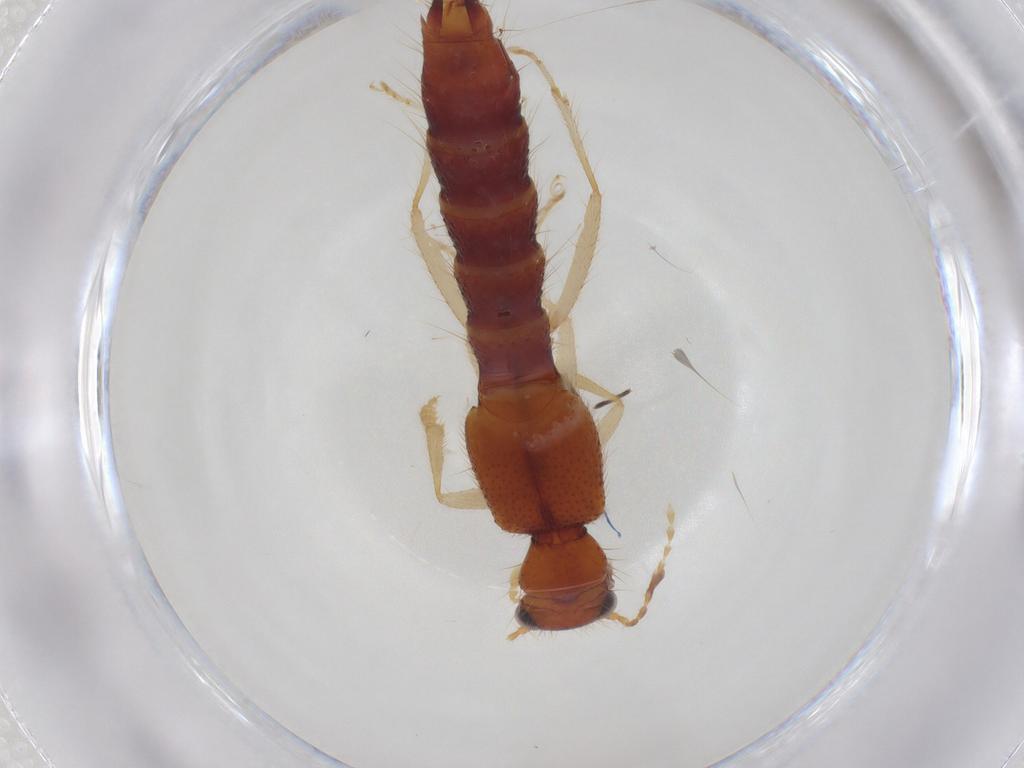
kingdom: Animalia
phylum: Arthropoda
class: Insecta
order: Coleoptera
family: Staphylinidae
